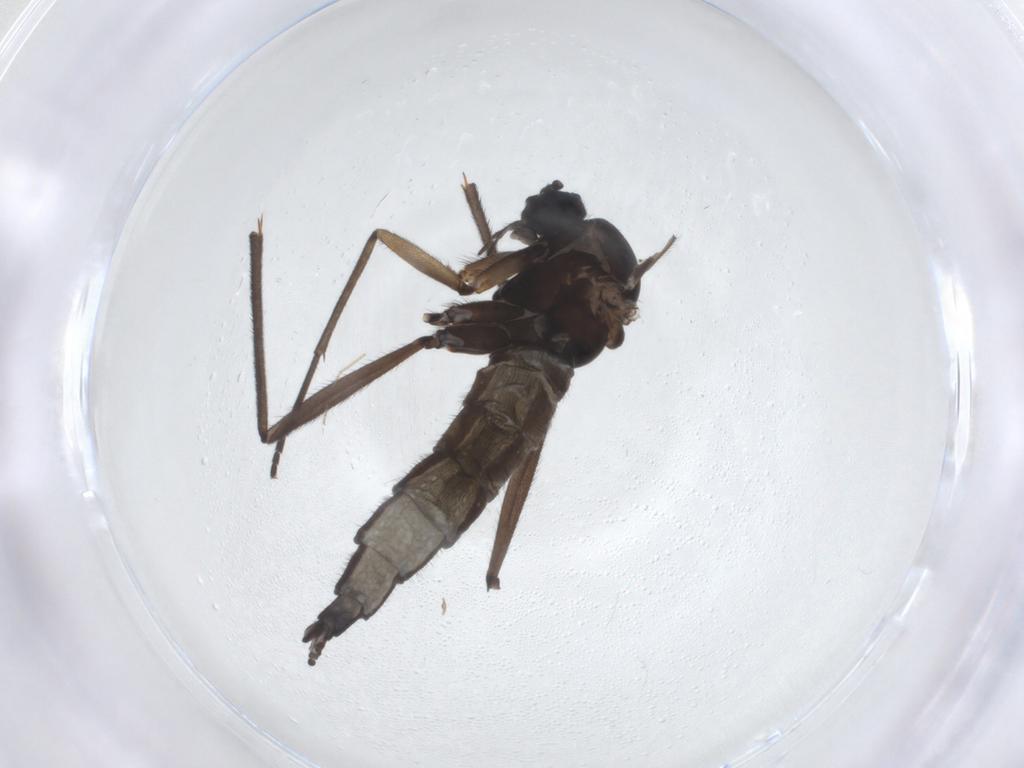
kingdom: Animalia
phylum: Arthropoda
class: Insecta
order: Diptera
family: Sciaridae
